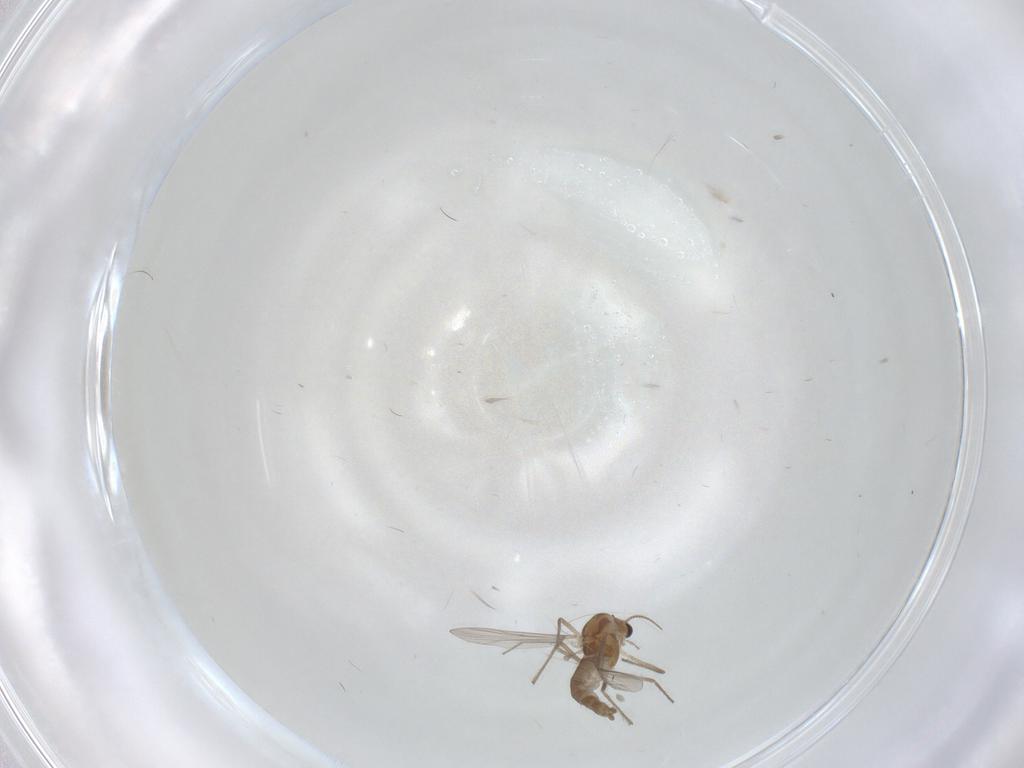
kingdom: Animalia
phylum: Arthropoda
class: Insecta
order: Diptera
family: Chironomidae
